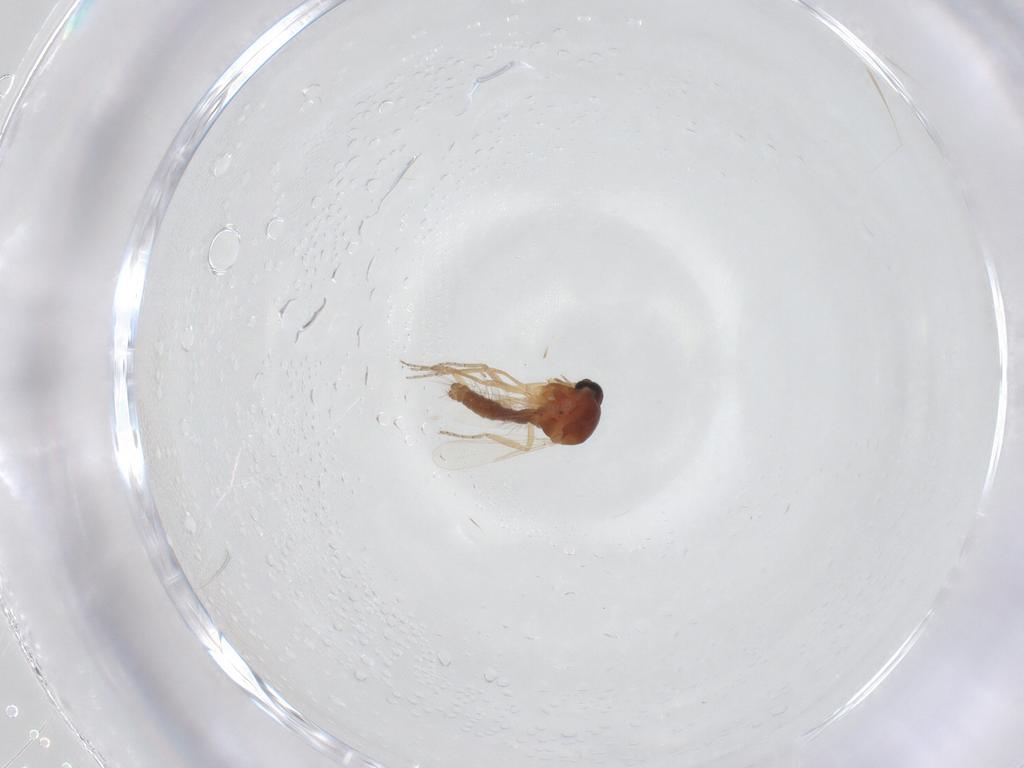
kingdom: Animalia
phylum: Arthropoda
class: Insecta
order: Diptera
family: Ceratopogonidae
